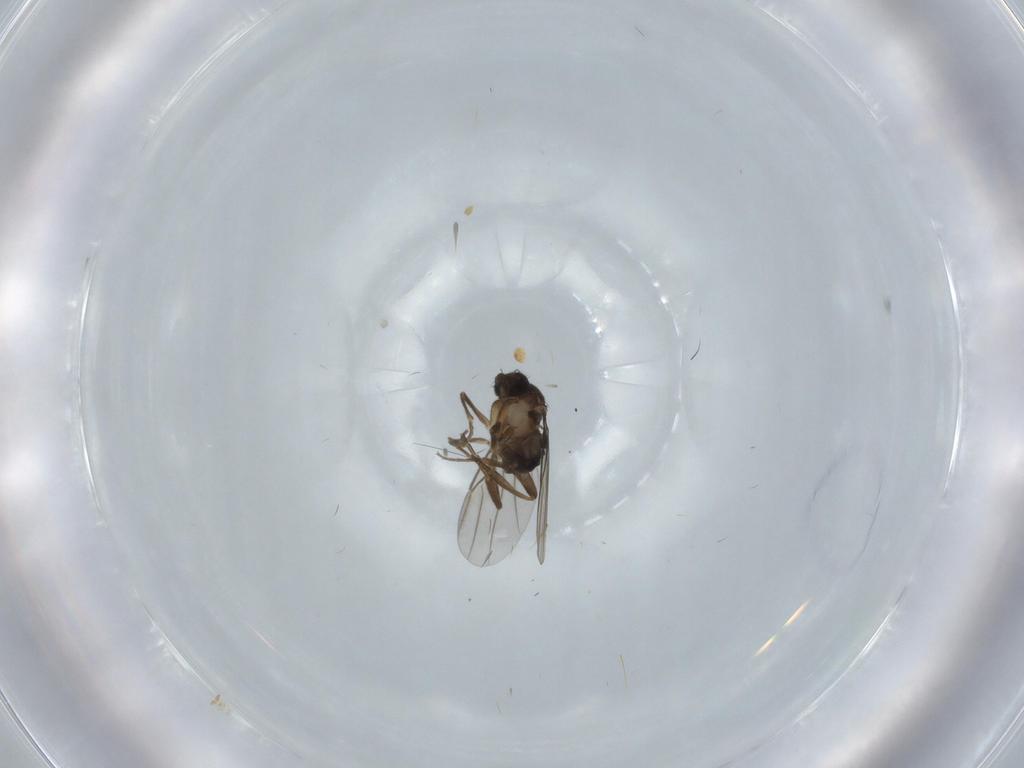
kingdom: Animalia
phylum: Arthropoda
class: Insecta
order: Diptera
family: Phoridae
